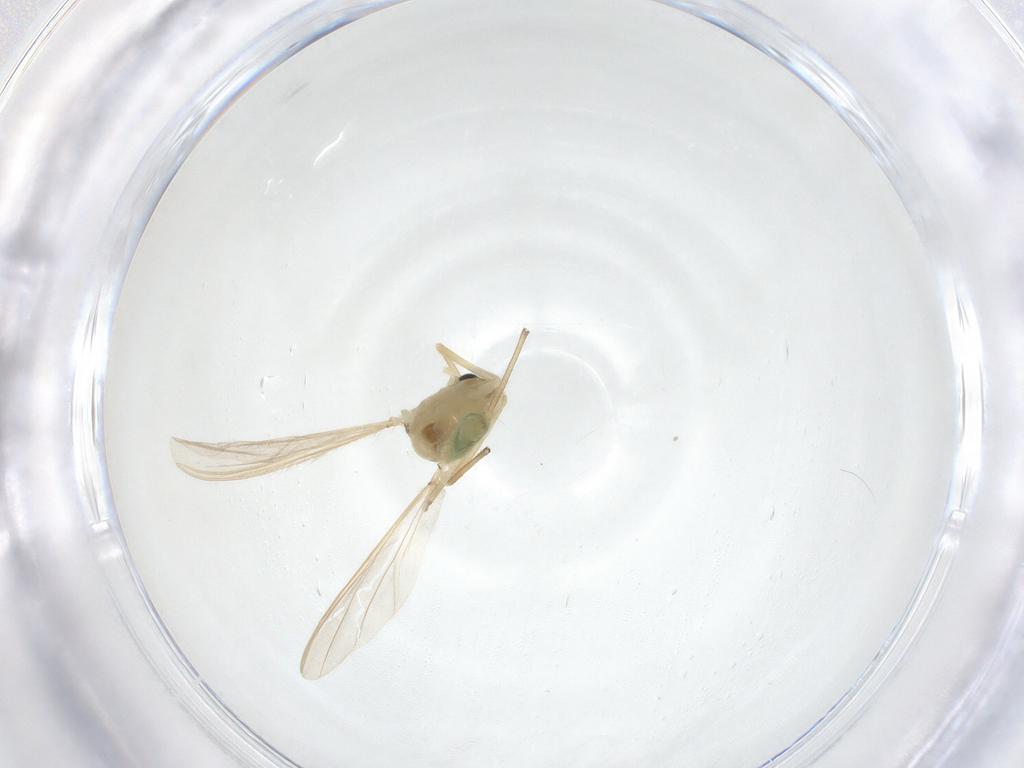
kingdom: Animalia
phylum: Arthropoda
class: Insecta
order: Diptera
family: Chironomidae
